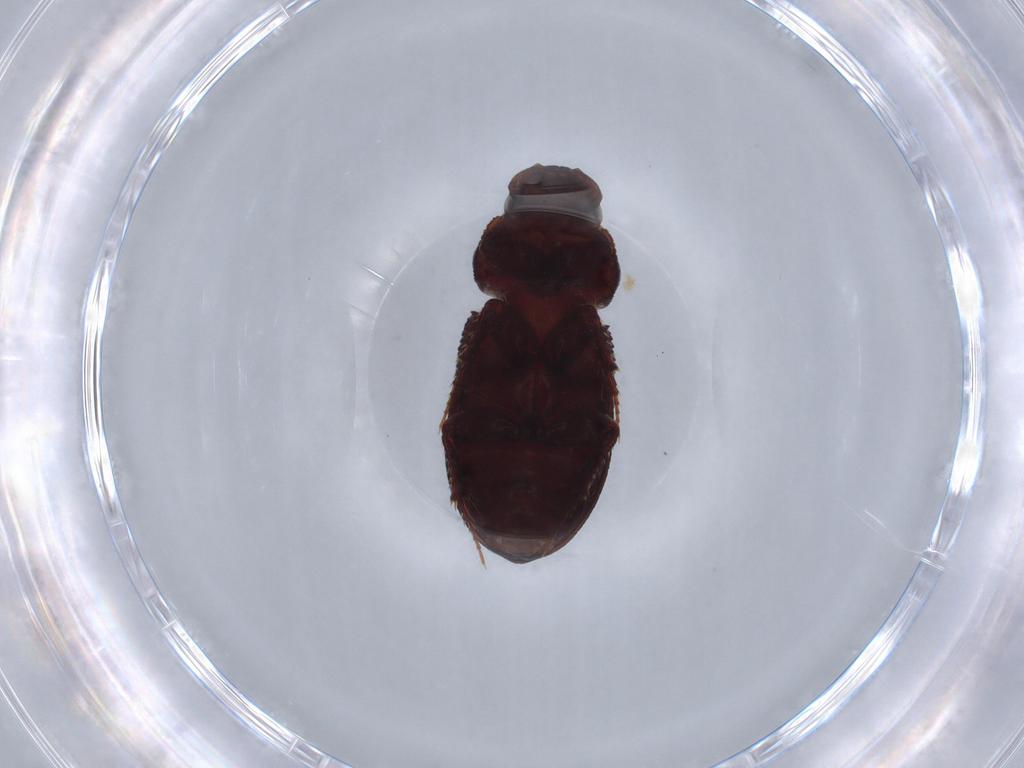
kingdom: Animalia
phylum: Arthropoda
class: Insecta
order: Coleoptera
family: Scarabaeidae
